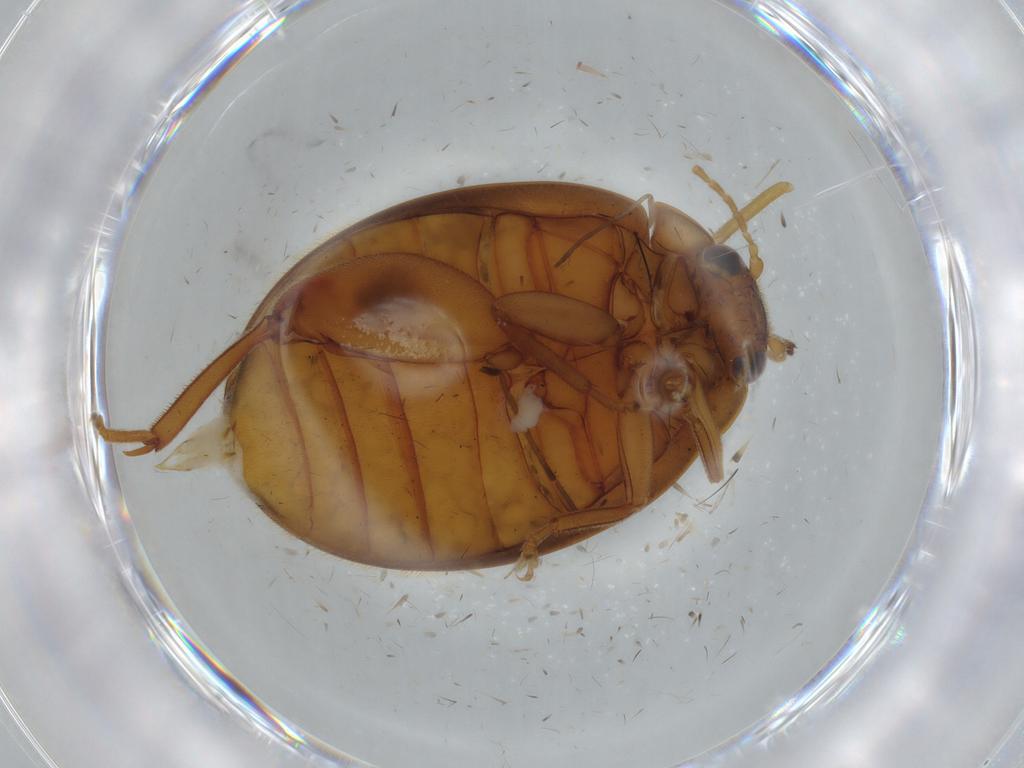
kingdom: Animalia
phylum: Arthropoda
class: Insecta
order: Coleoptera
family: Scirtidae
